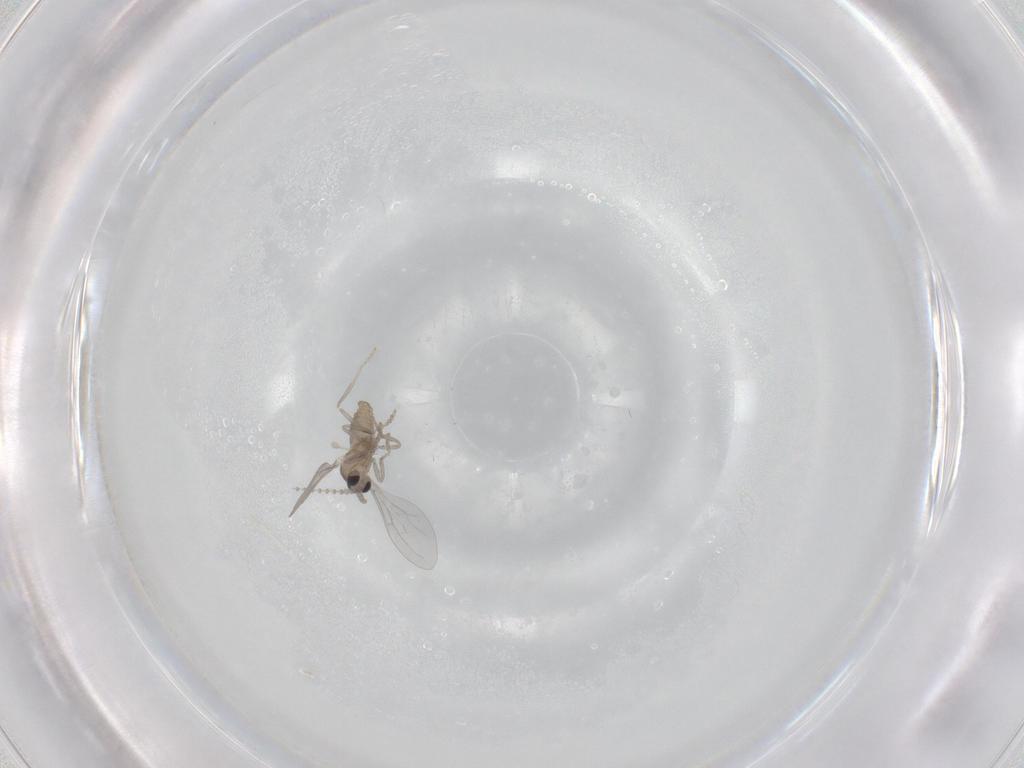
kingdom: Animalia
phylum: Arthropoda
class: Insecta
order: Diptera
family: Cecidomyiidae
